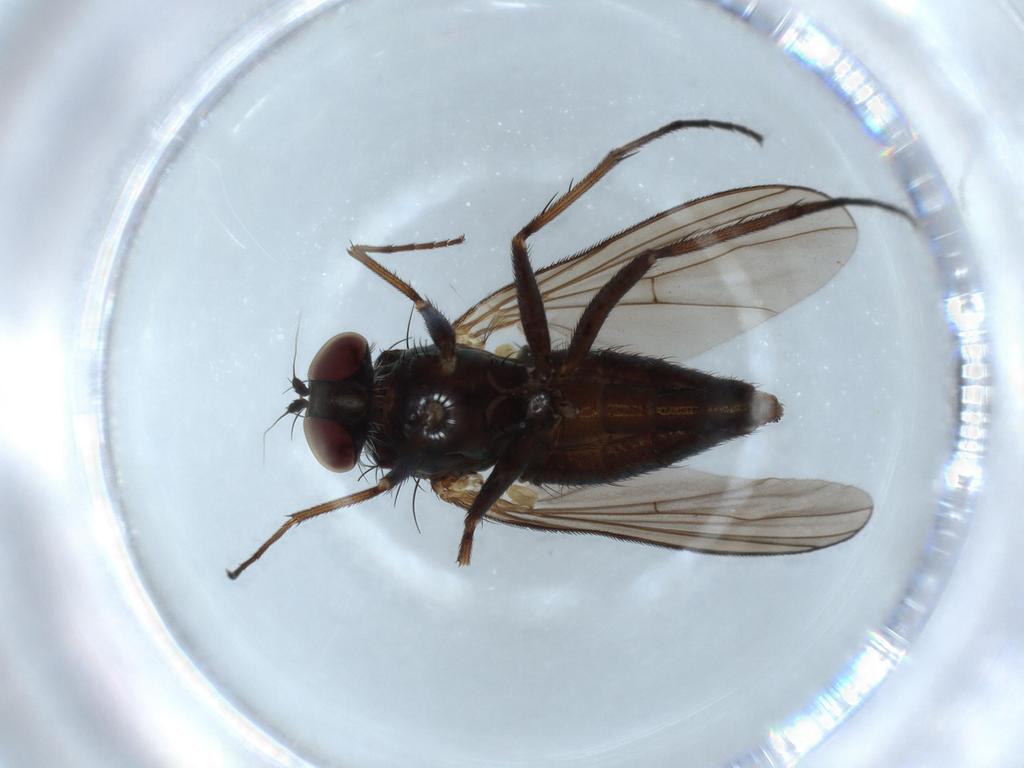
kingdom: Animalia
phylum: Arthropoda
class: Insecta
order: Diptera
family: Dolichopodidae
